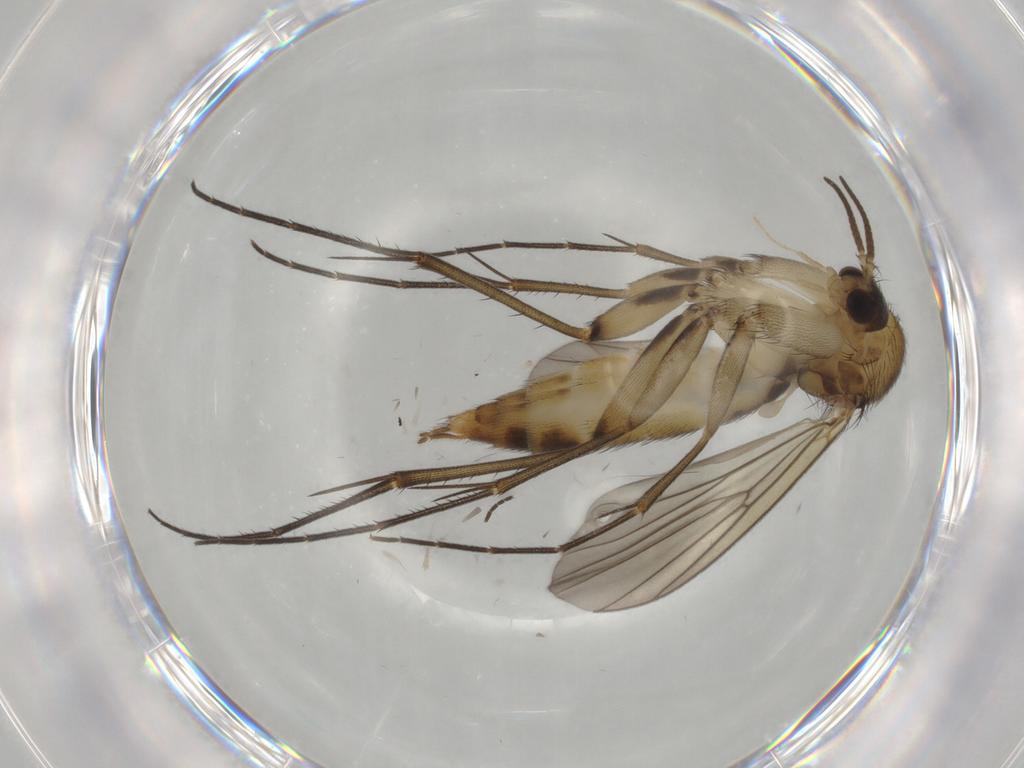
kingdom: Animalia
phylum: Arthropoda
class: Insecta
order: Diptera
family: Mycetophilidae
